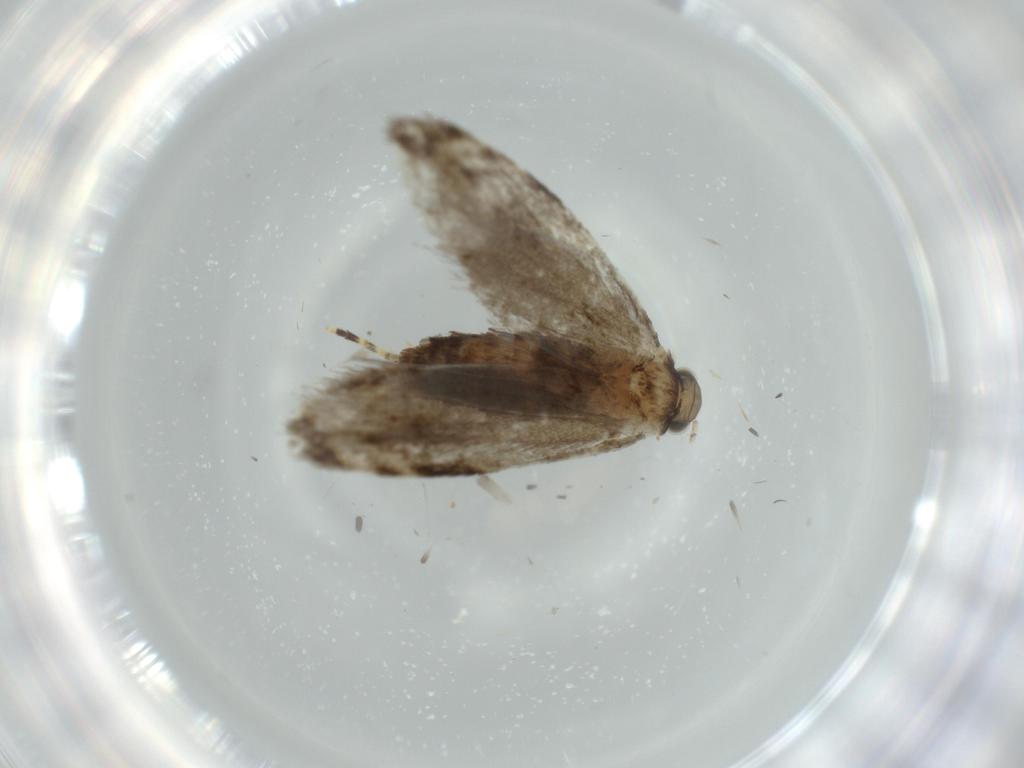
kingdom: Animalia
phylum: Arthropoda
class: Insecta
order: Lepidoptera
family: Tineidae
